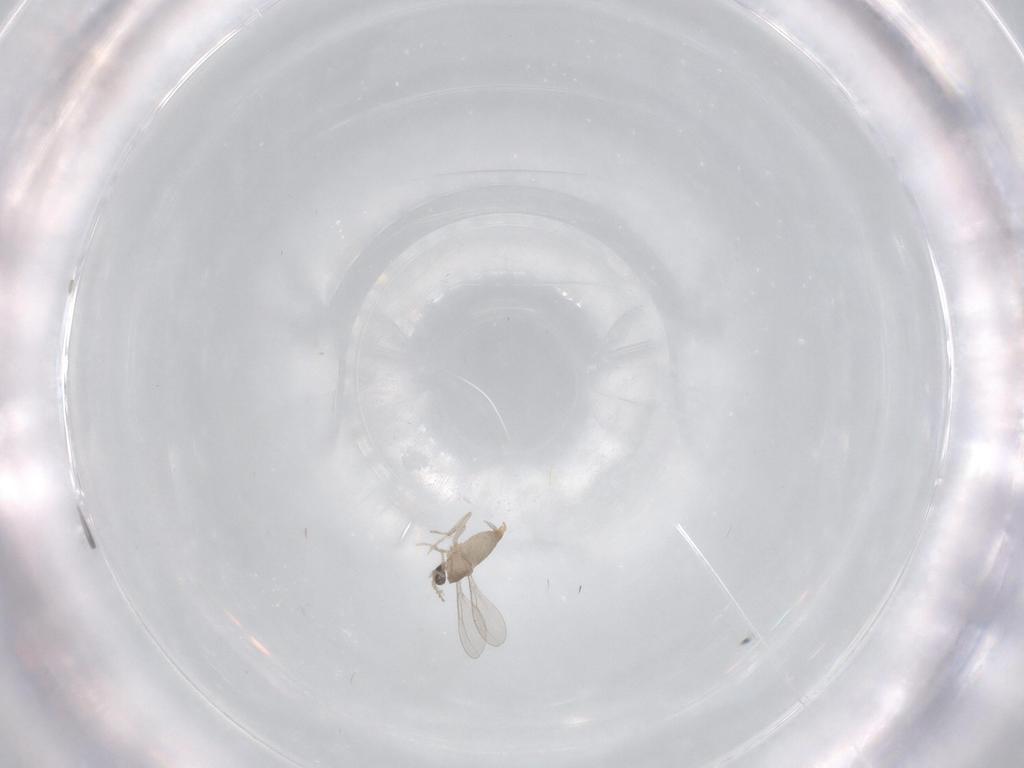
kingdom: Animalia
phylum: Arthropoda
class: Insecta
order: Diptera
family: Cecidomyiidae
